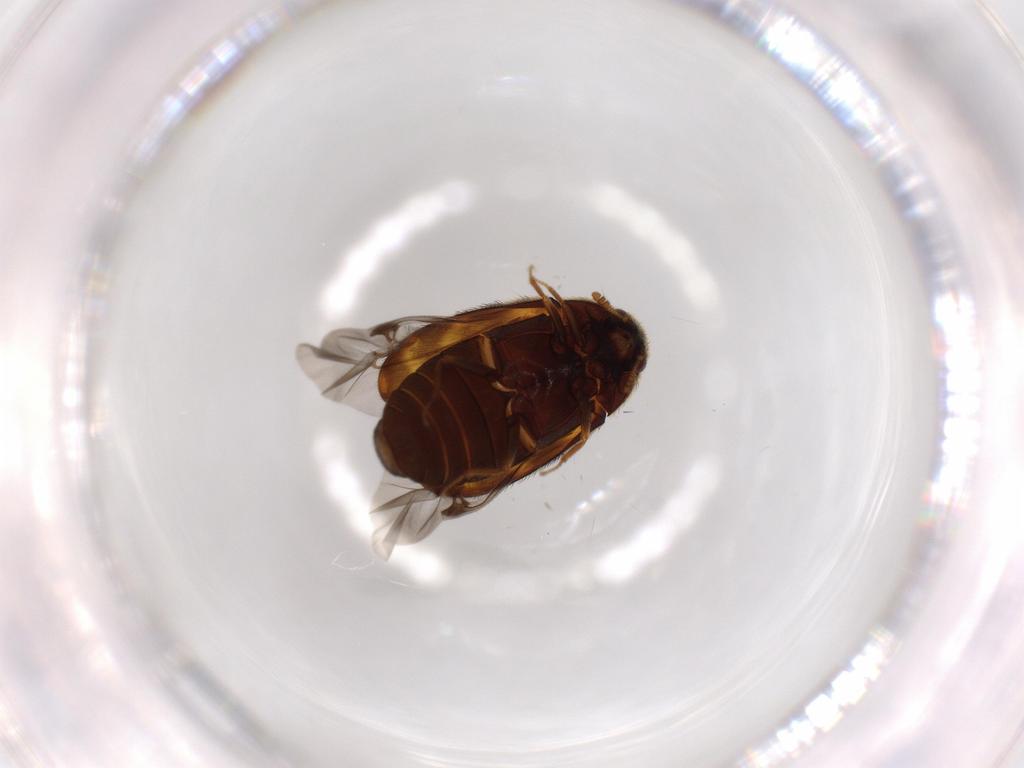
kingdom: Animalia
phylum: Arthropoda
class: Insecta
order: Coleoptera
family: Dermestidae
